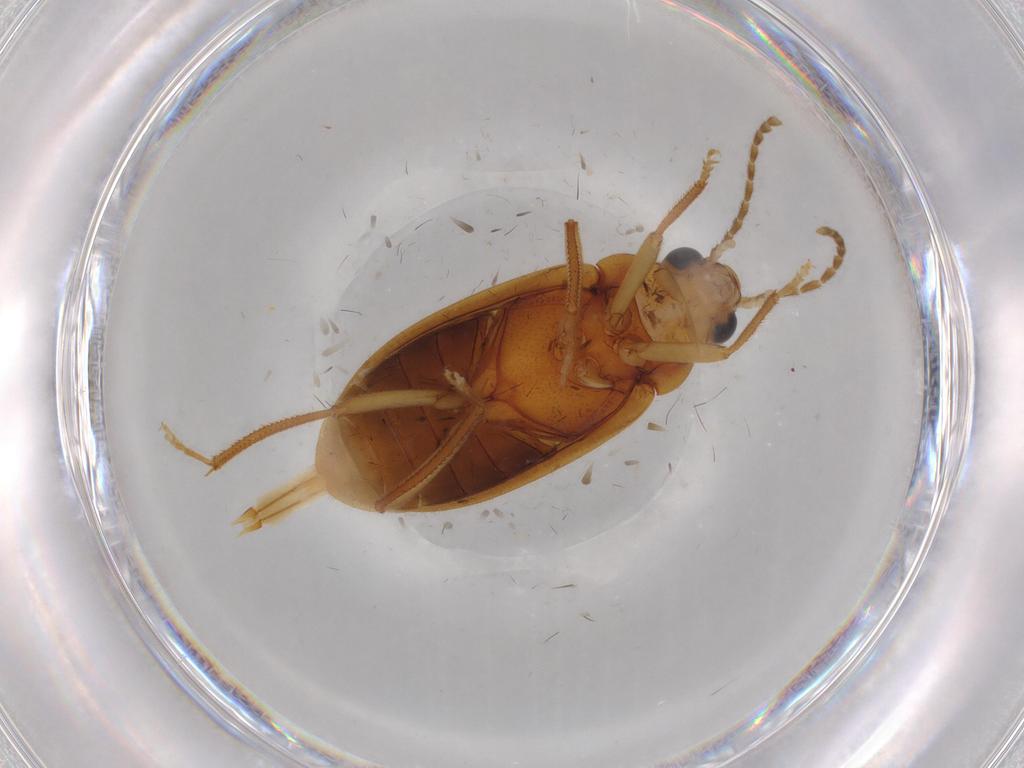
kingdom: Animalia
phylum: Arthropoda
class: Insecta
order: Coleoptera
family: Ptilodactylidae
